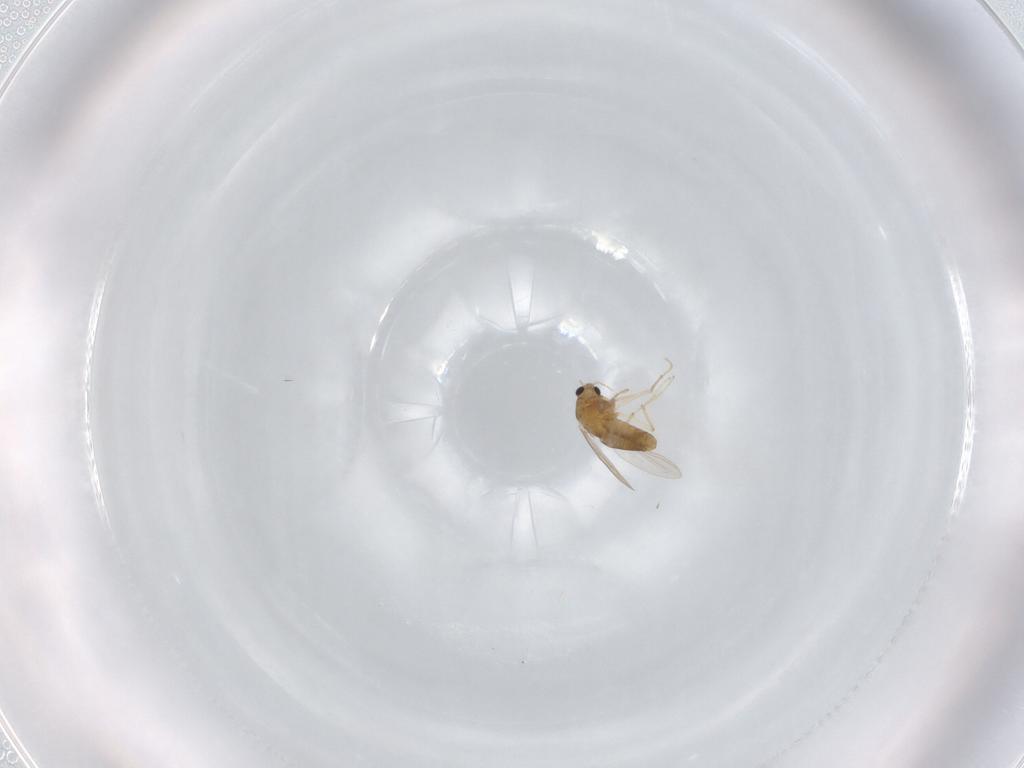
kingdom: Animalia
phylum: Arthropoda
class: Insecta
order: Diptera
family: Chironomidae
